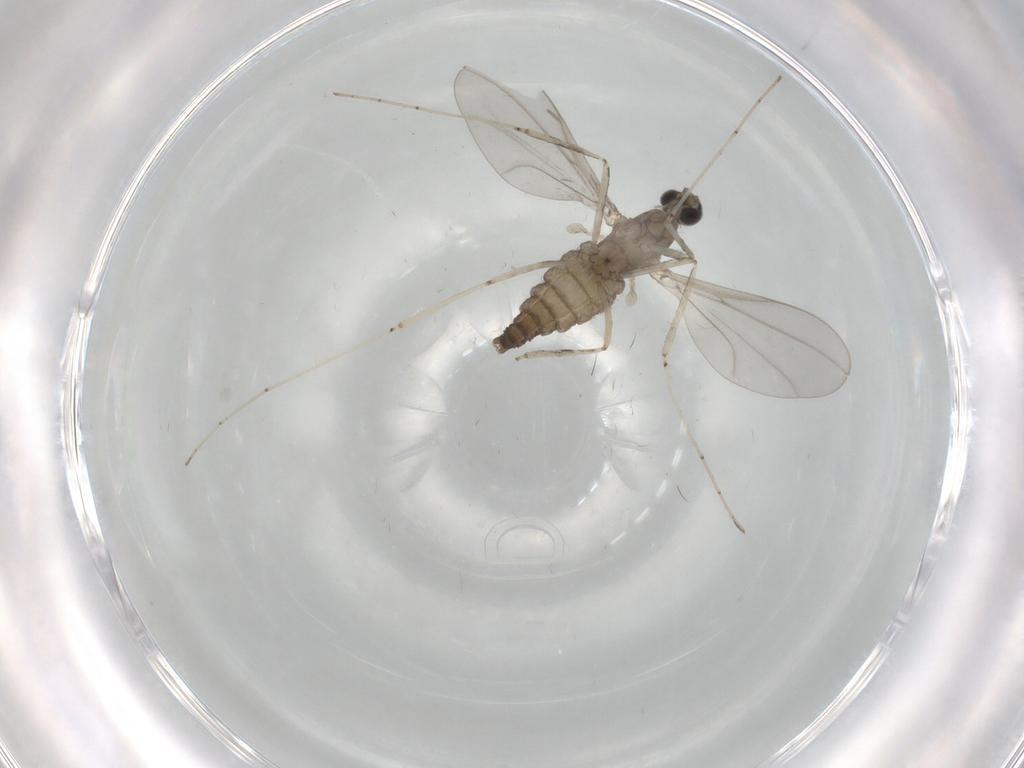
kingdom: Animalia
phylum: Arthropoda
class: Insecta
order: Diptera
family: Cecidomyiidae
